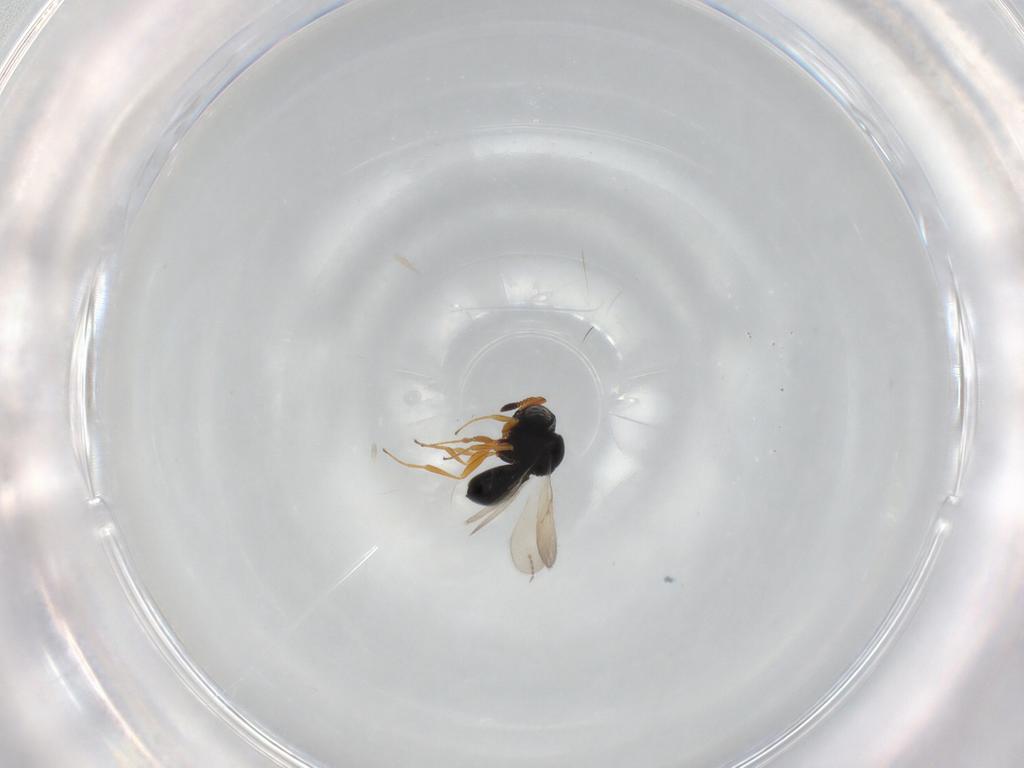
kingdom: Animalia
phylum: Arthropoda
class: Insecta
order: Hymenoptera
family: Scelionidae
